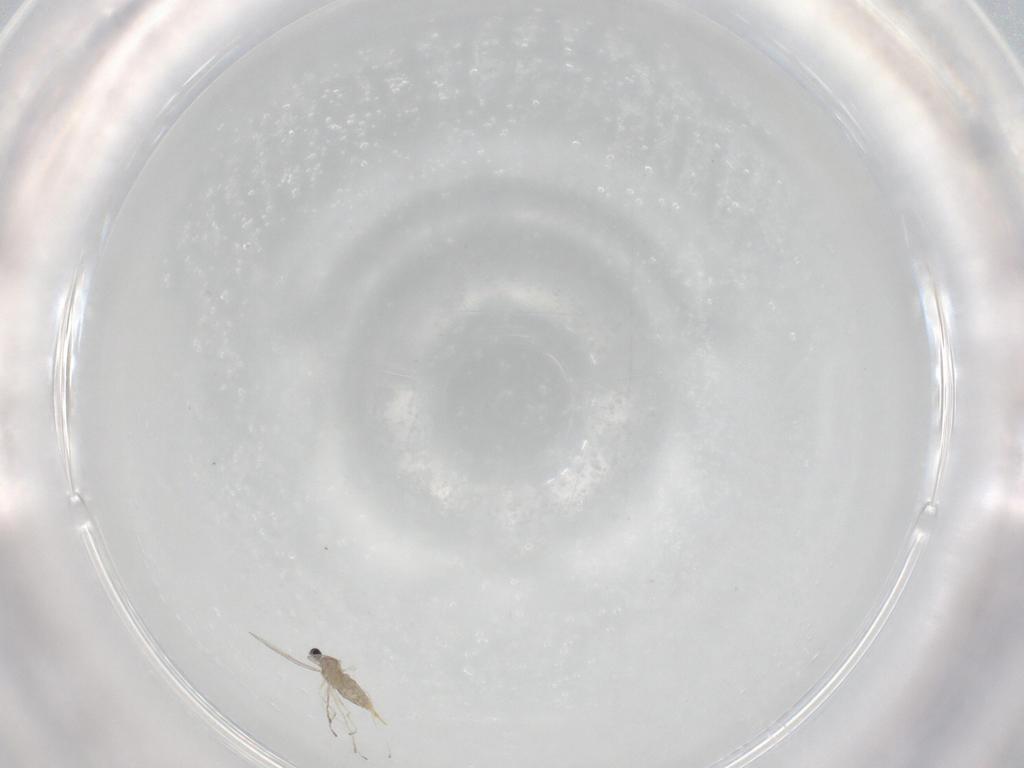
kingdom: Animalia
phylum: Arthropoda
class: Insecta
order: Diptera
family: Cecidomyiidae
